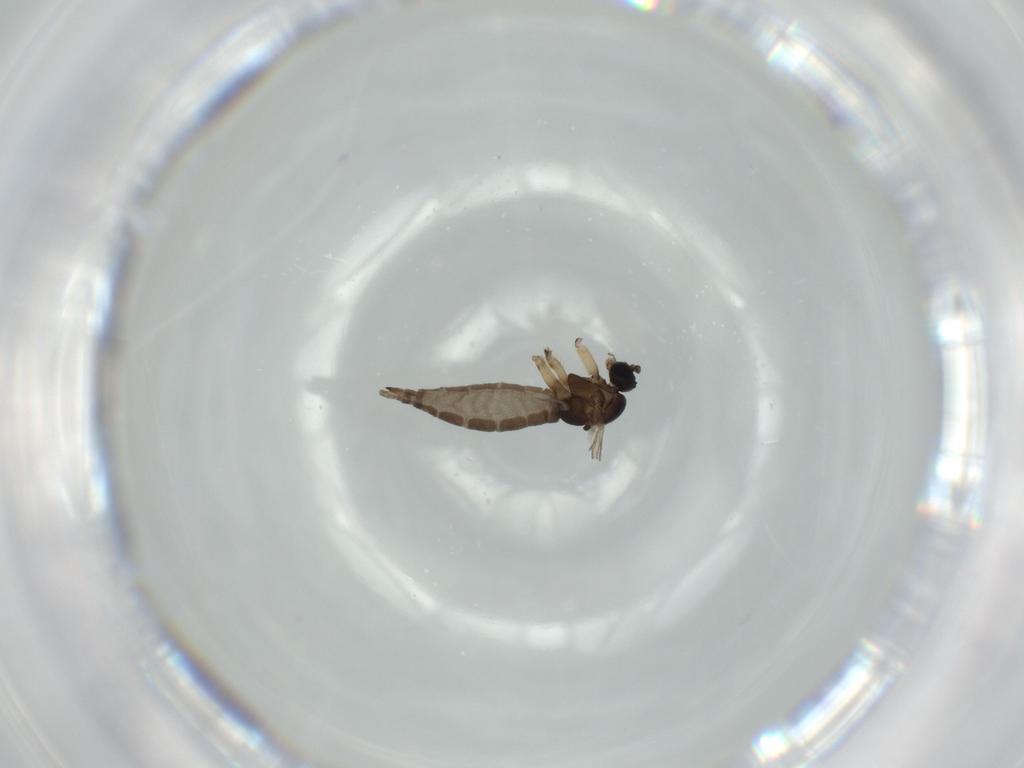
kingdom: Animalia
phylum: Arthropoda
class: Insecta
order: Diptera
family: Sciaridae
